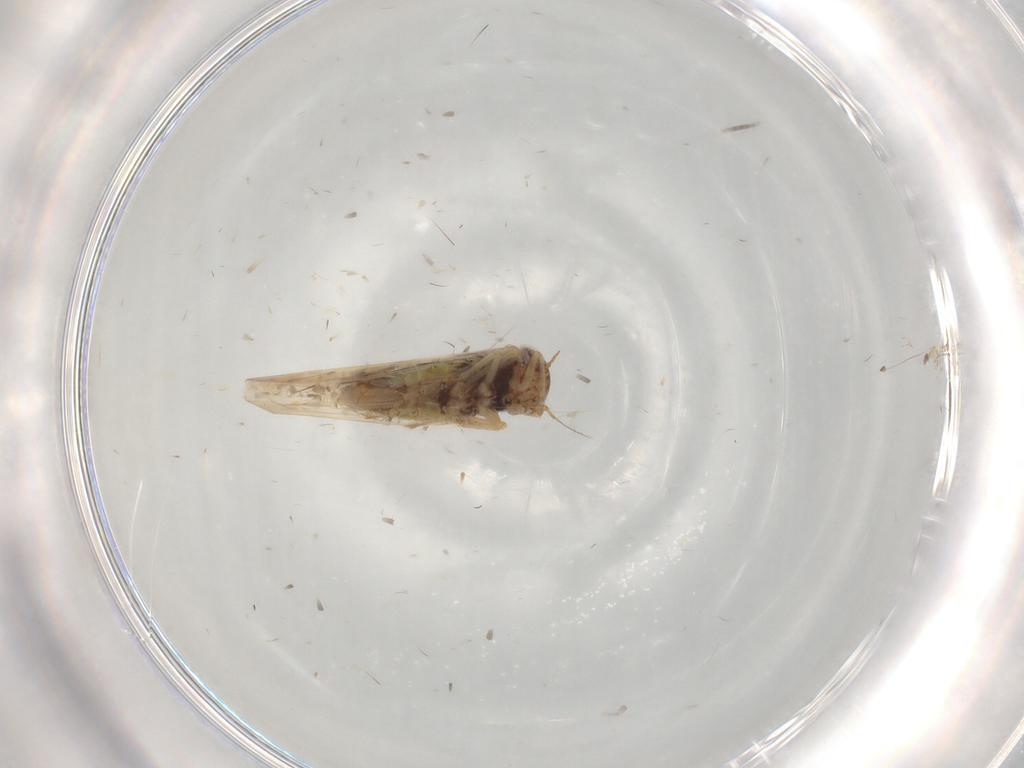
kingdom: Animalia
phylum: Arthropoda
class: Insecta
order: Hemiptera
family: Cicadellidae
